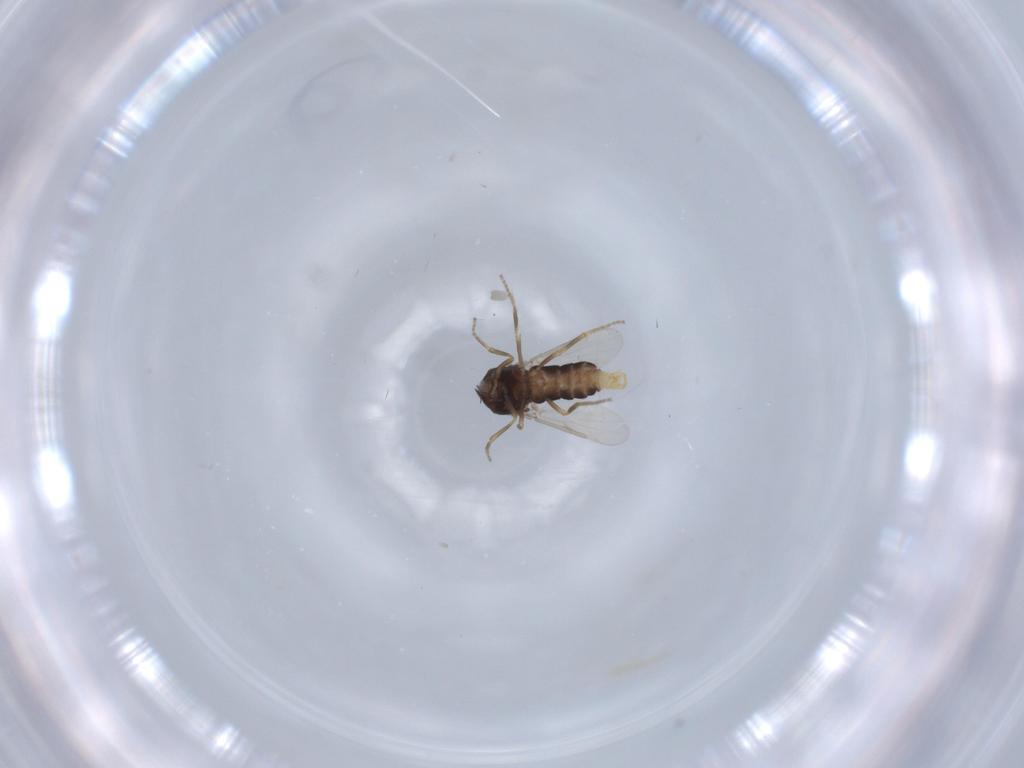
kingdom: Animalia
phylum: Arthropoda
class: Insecta
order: Diptera
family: Ceratopogonidae
